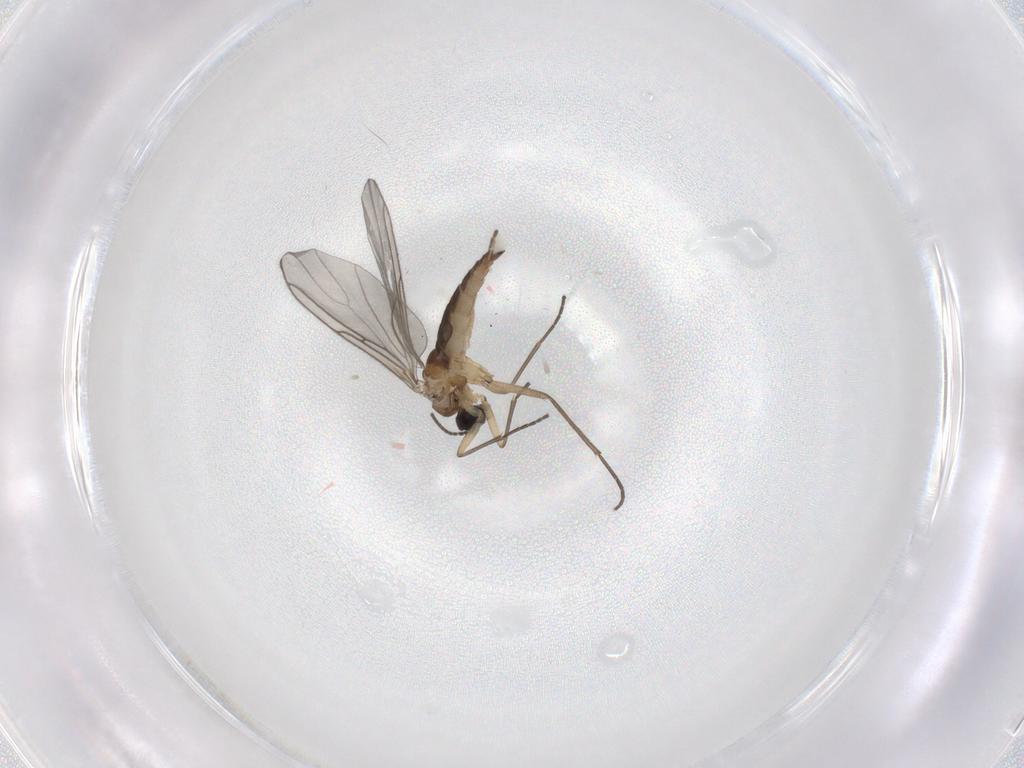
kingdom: Animalia
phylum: Arthropoda
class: Insecta
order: Diptera
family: Sciaridae
